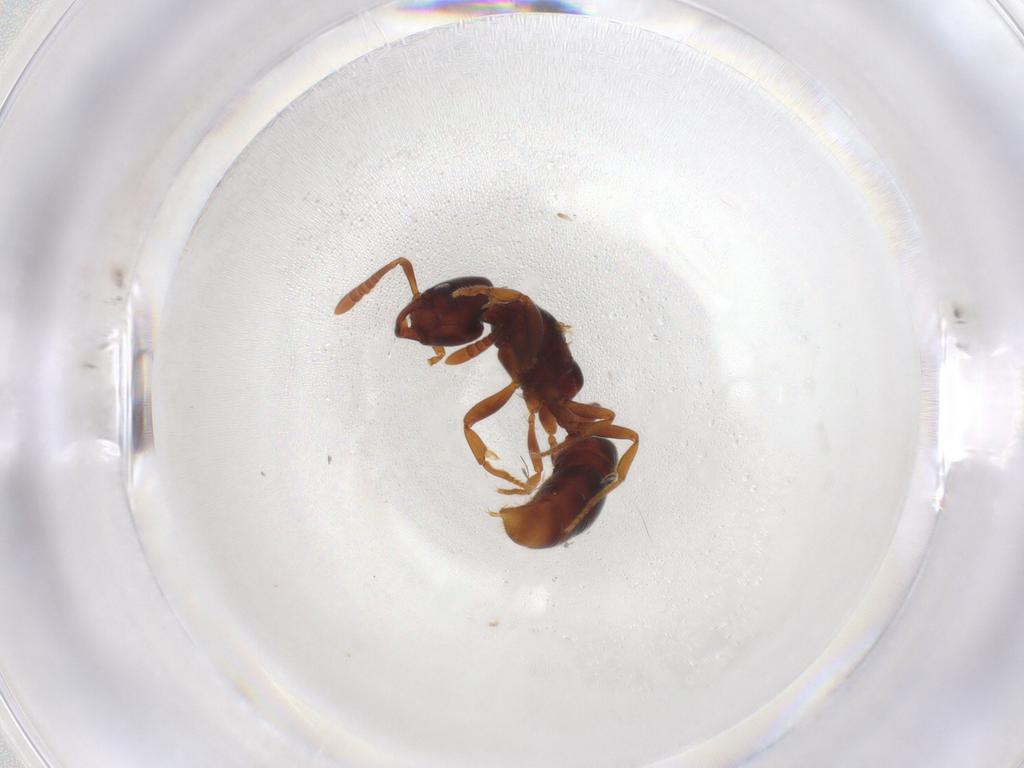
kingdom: Animalia
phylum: Arthropoda
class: Insecta
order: Hymenoptera
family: Formicidae
